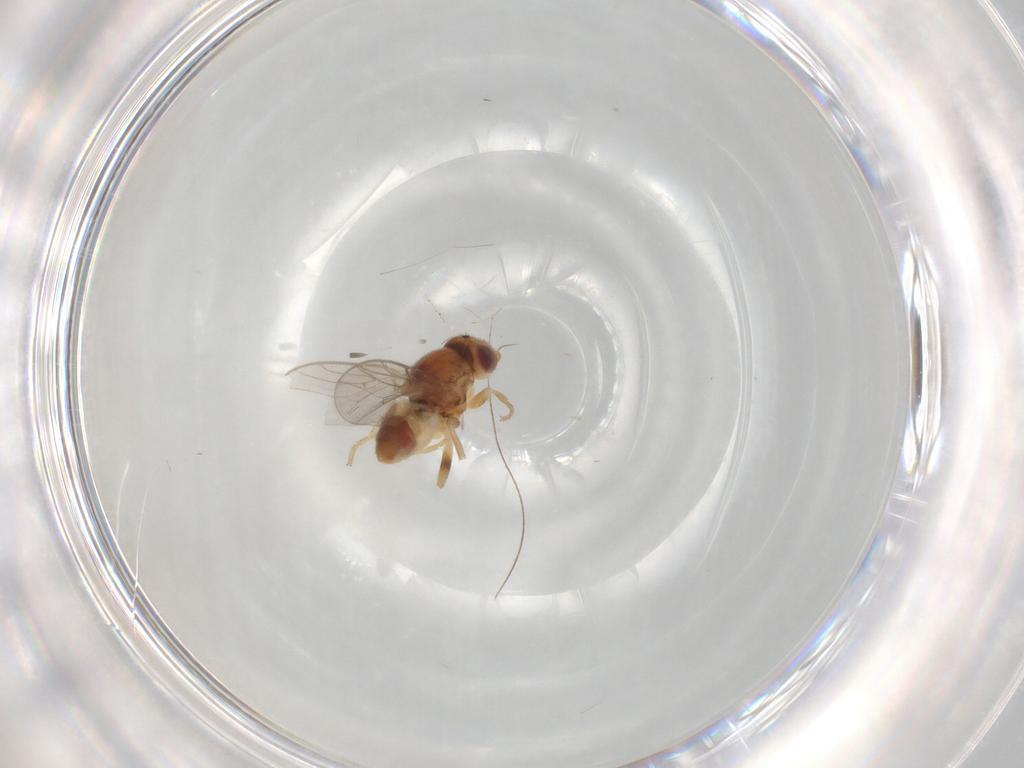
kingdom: Animalia
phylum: Arthropoda
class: Insecta
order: Diptera
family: Chloropidae
